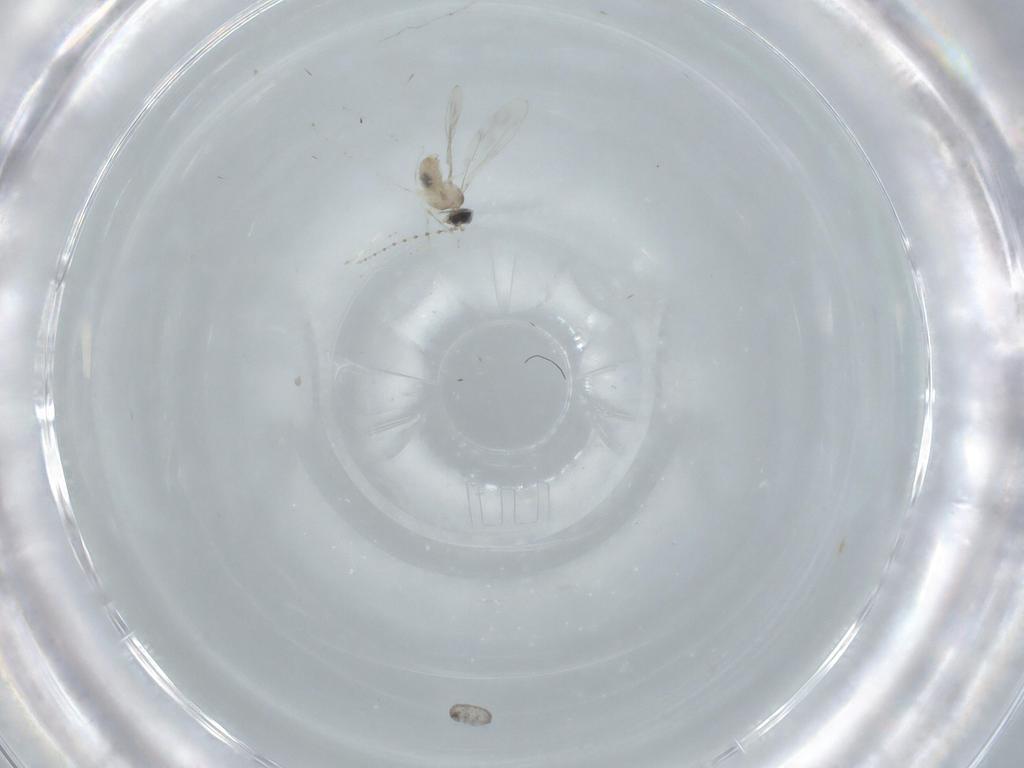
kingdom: Animalia
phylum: Arthropoda
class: Insecta
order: Diptera
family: Cecidomyiidae
